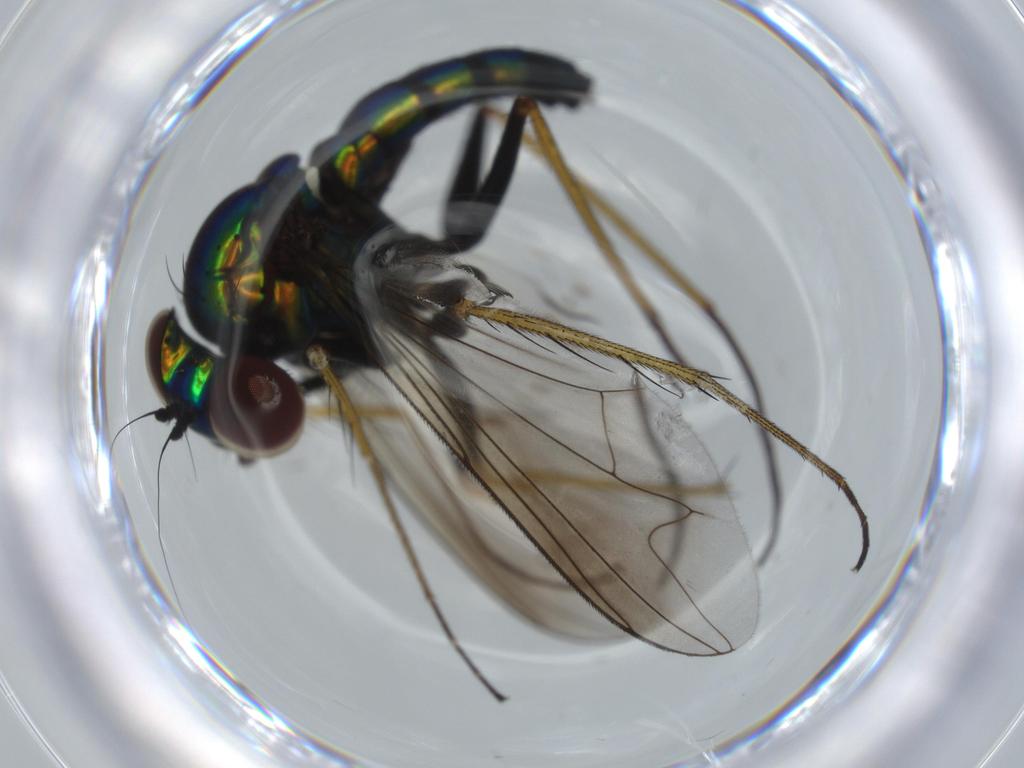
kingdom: Animalia
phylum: Arthropoda
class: Insecta
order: Diptera
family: Dolichopodidae
